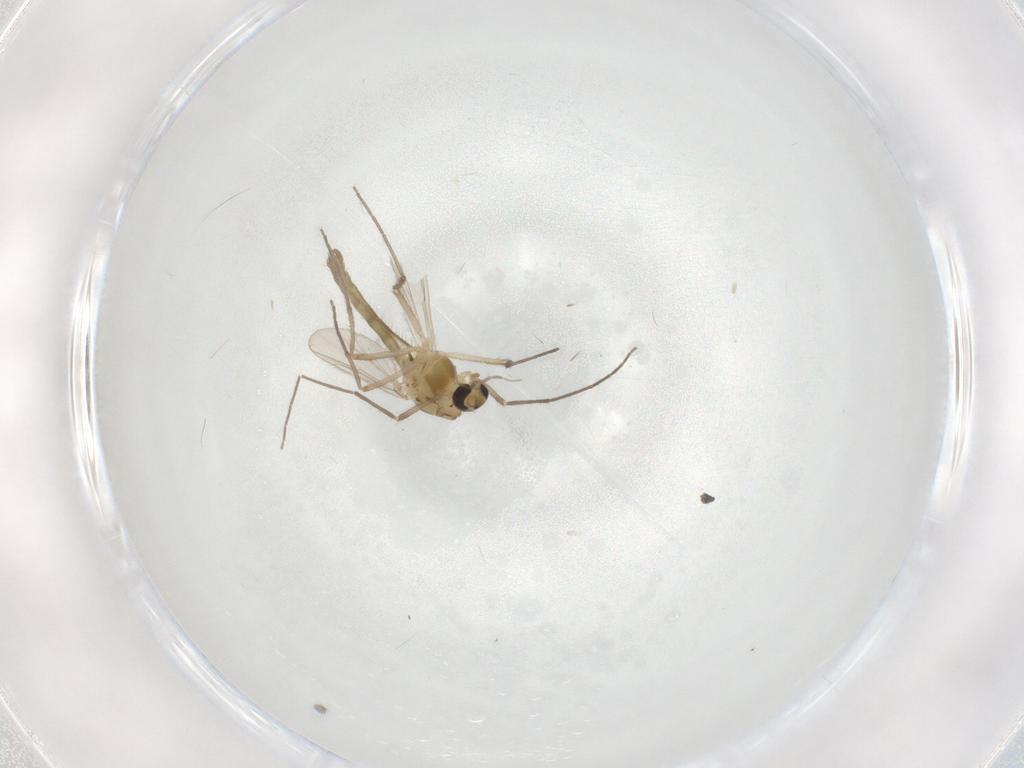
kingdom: Animalia
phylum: Arthropoda
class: Insecta
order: Diptera
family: Chironomidae
